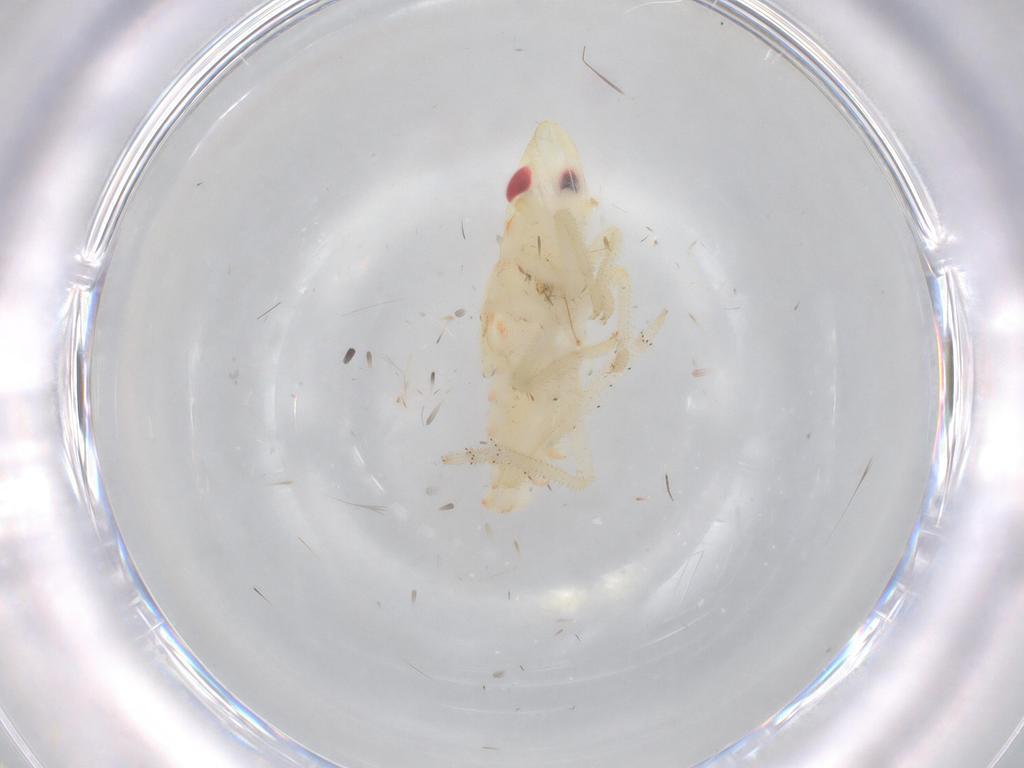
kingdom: Animalia
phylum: Arthropoda
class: Insecta
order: Hemiptera
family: Tropiduchidae
